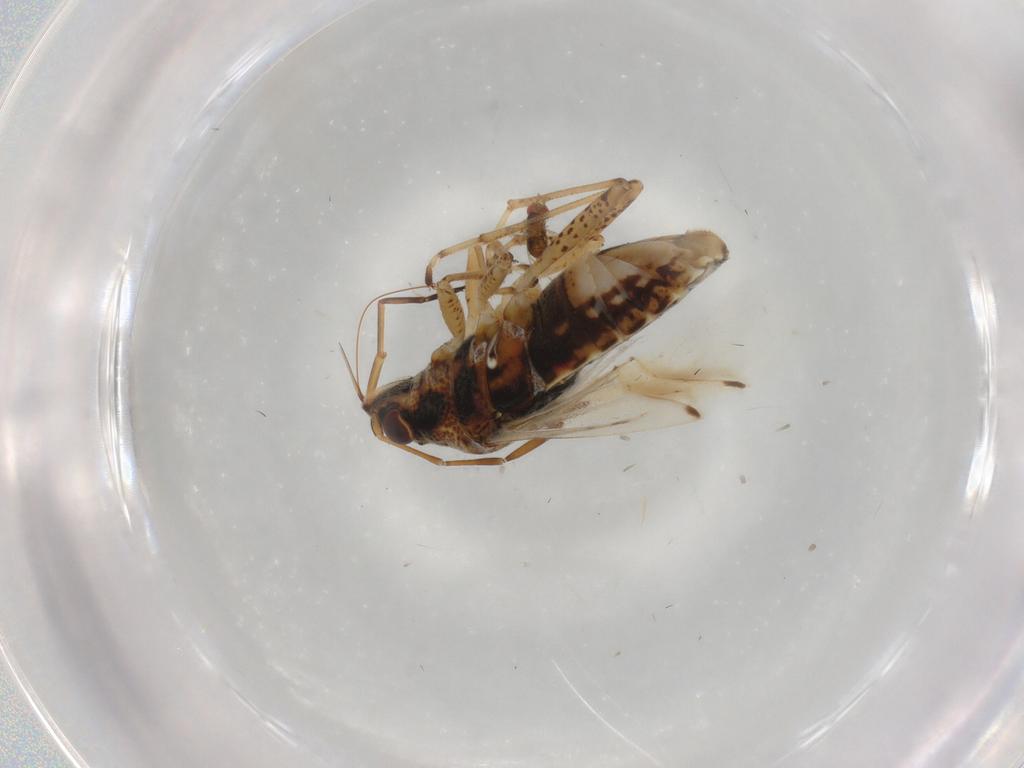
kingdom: Animalia
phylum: Arthropoda
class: Insecta
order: Hemiptera
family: Lygaeidae
